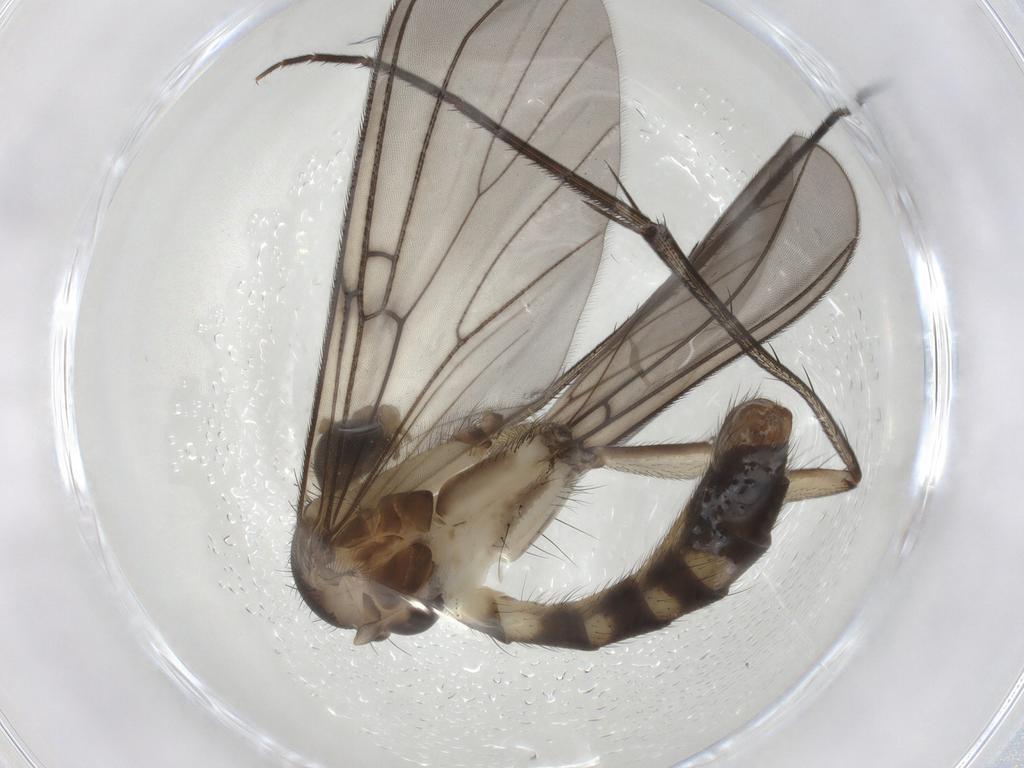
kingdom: Animalia
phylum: Arthropoda
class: Insecta
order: Diptera
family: Mycetophilidae
